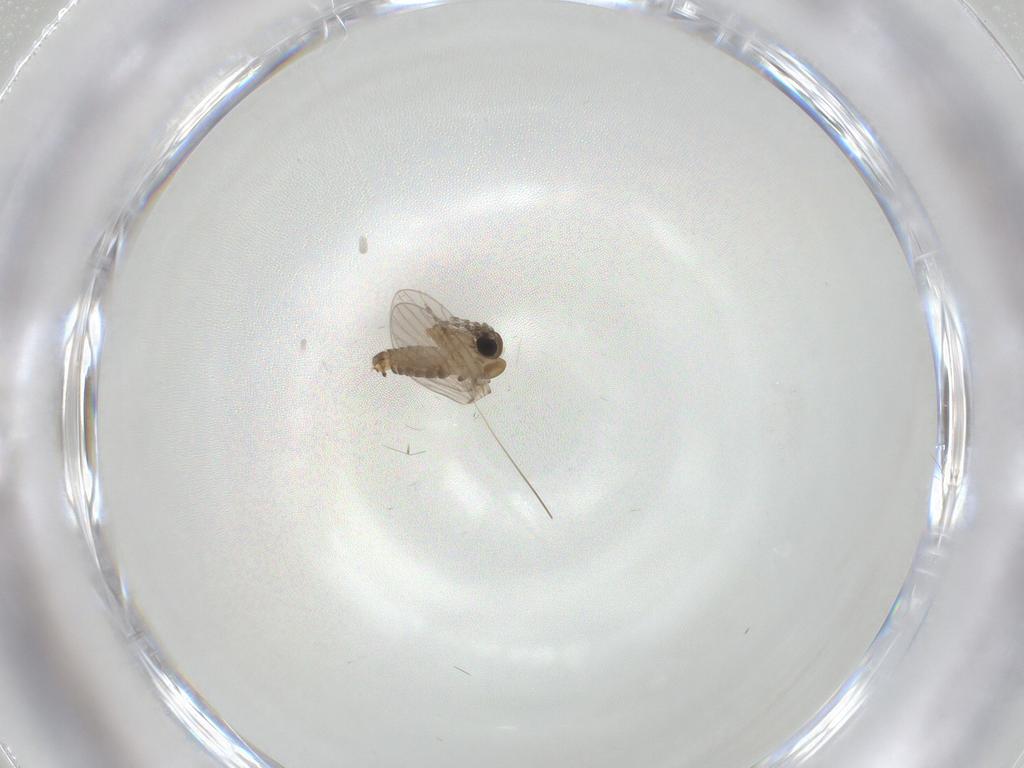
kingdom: Animalia
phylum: Arthropoda
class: Insecta
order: Diptera
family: Psychodidae
